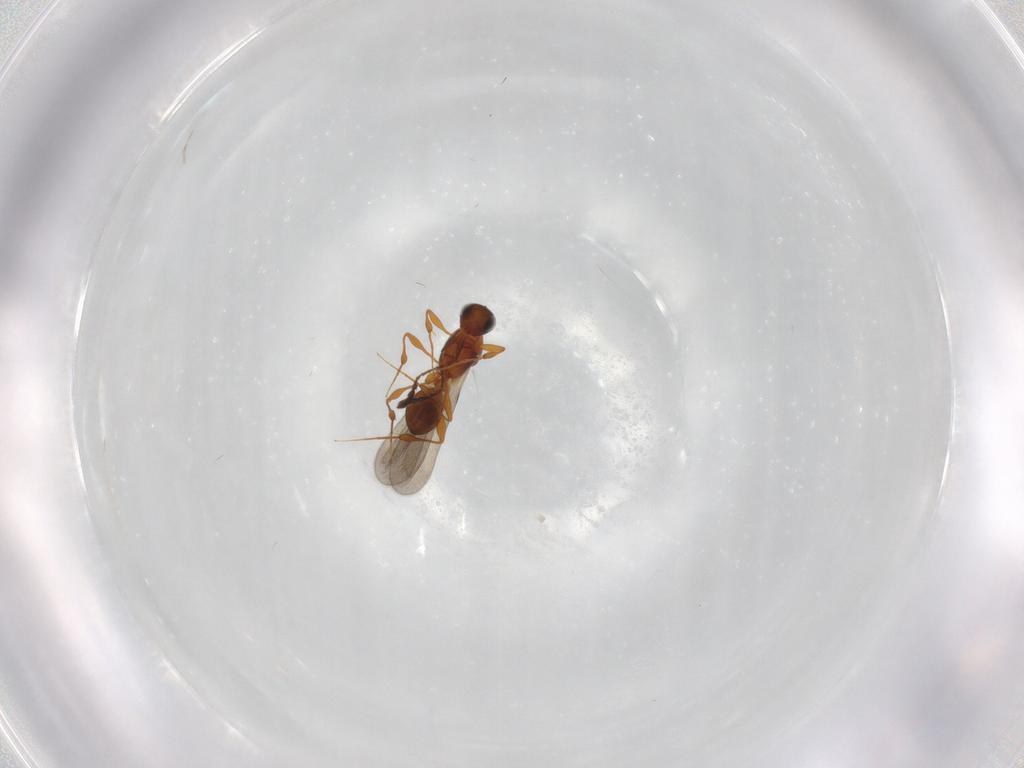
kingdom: Animalia
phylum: Arthropoda
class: Insecta
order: Hymenoptera
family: Platygastridae
